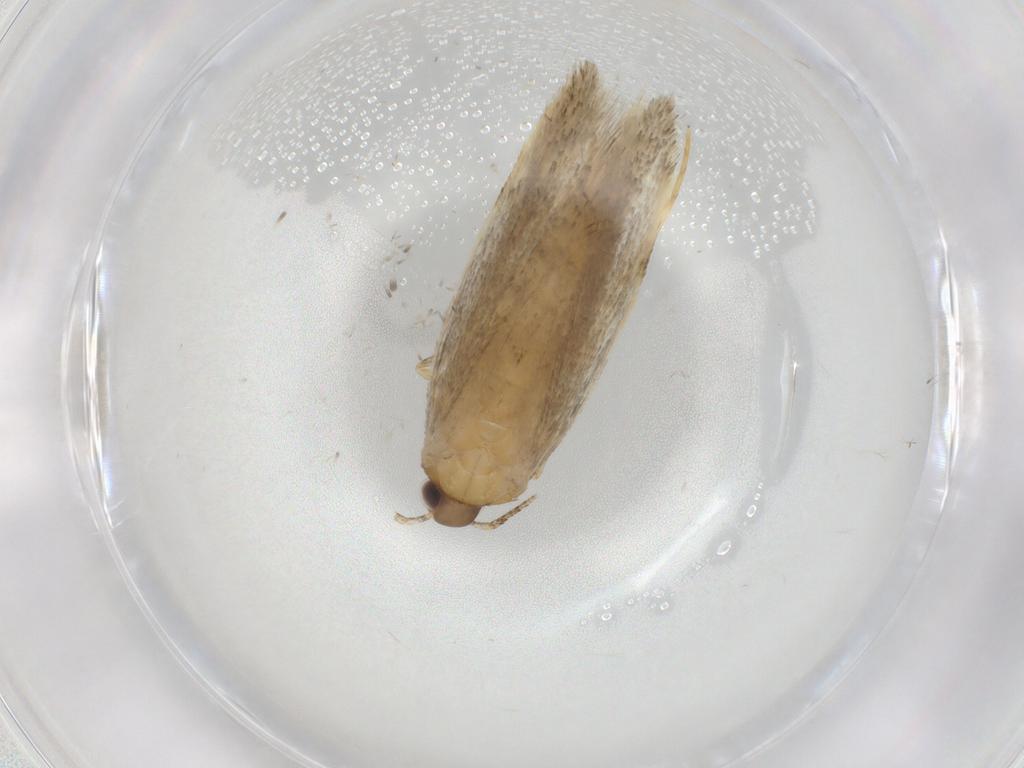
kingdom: Animalia
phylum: Arthropoda
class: Insecta
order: Lepidoptera
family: Autostichidae
